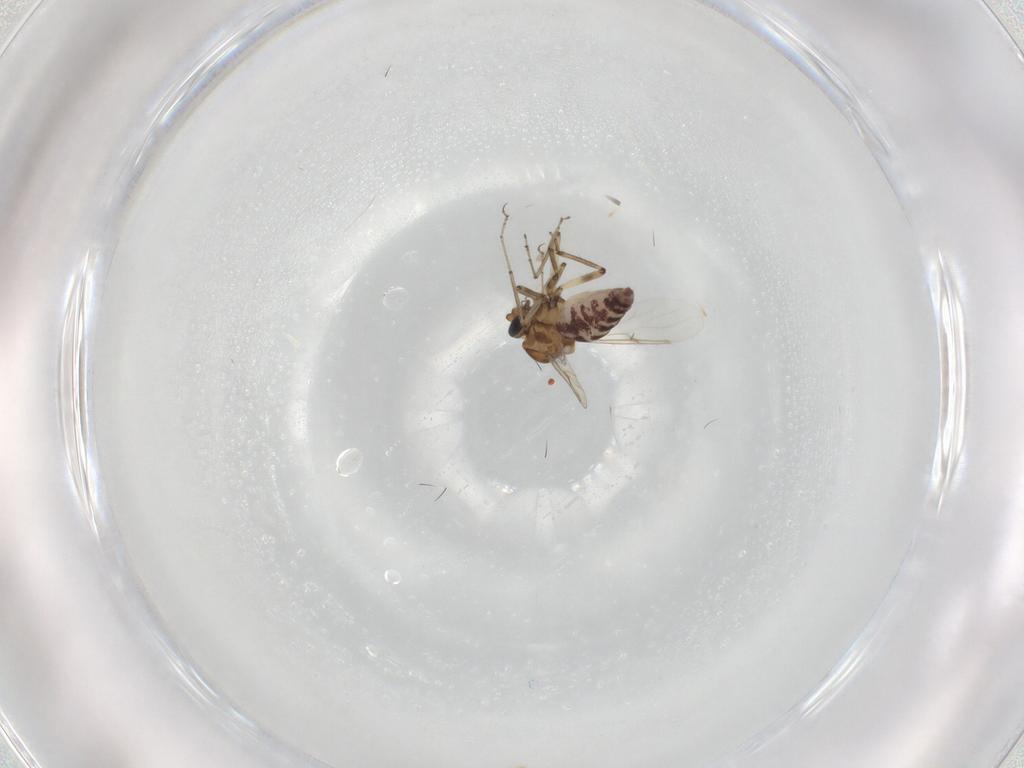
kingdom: Animalia
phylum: Arthropoda
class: Insecta
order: Diptera
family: Ceratopogonidae
